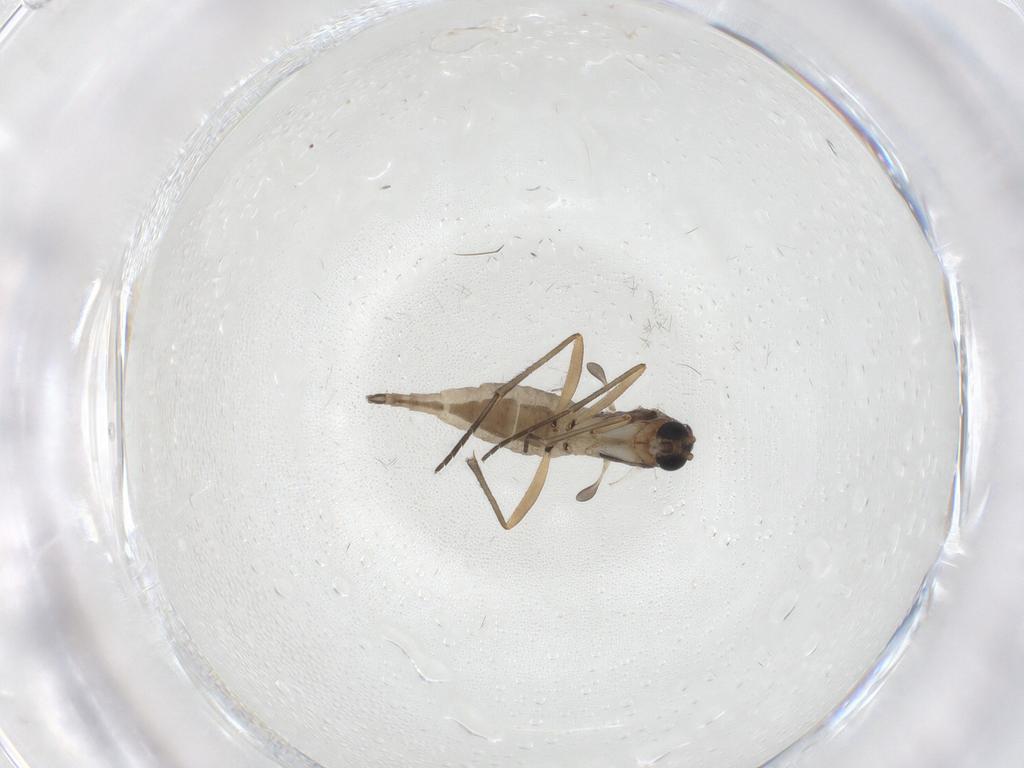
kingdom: Animalia
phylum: Arthropoda
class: Insecta
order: Diptera
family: Sciaridae
